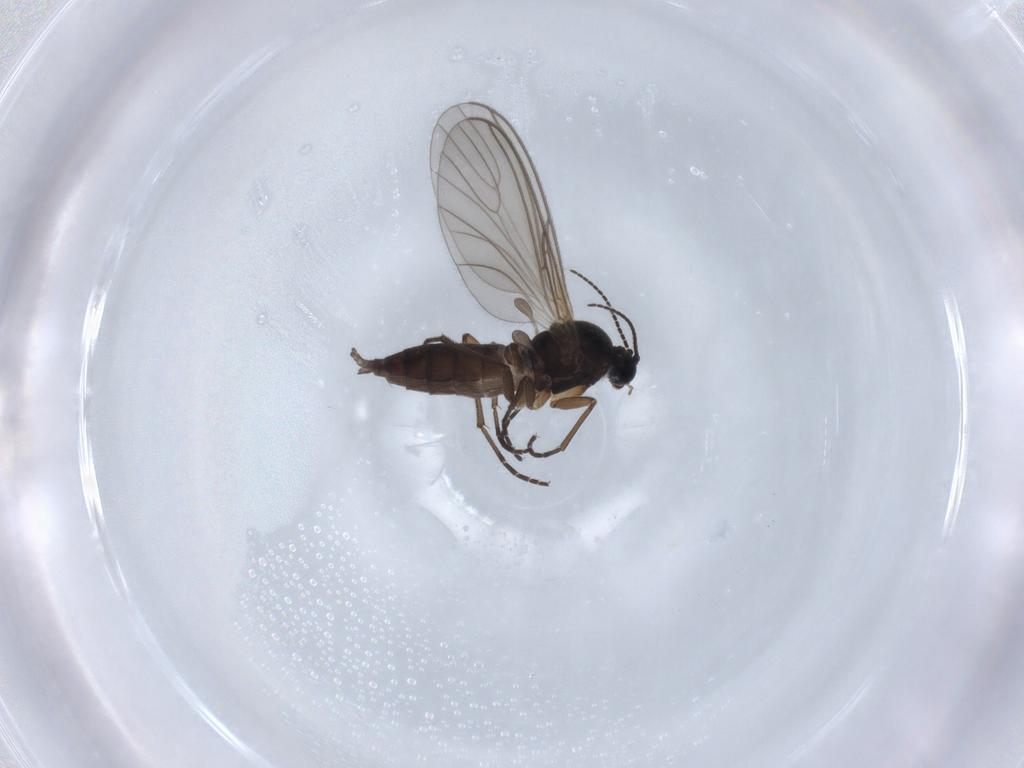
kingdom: Animalia
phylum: Arthropoda
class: Insecta
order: Diptera
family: Sciaridae
